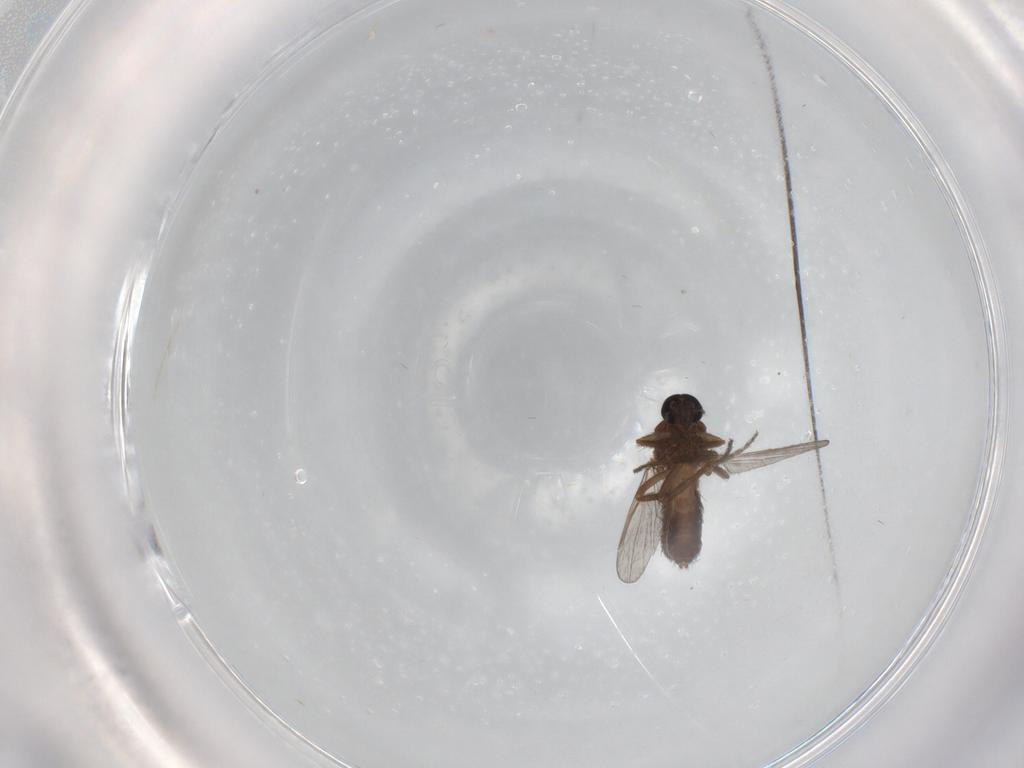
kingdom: Animalia
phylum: Arthropoda
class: Insecta
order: Diptera
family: Ceratopogonidae
